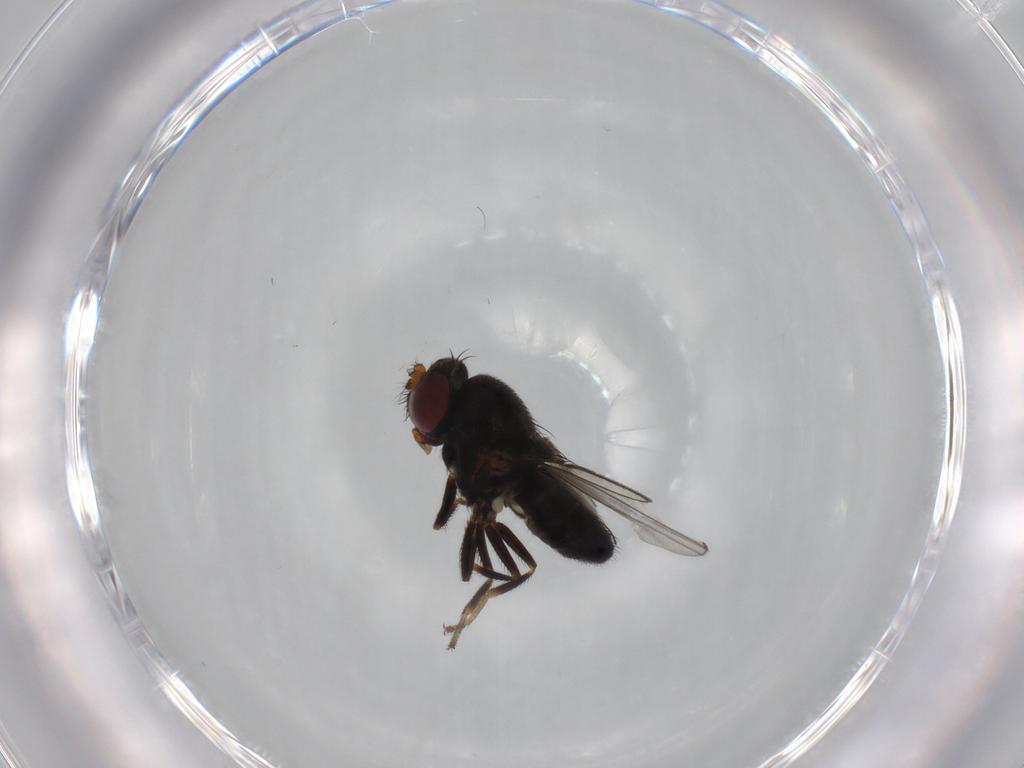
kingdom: Animalia
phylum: Arthropoda
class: Insecta
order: Diptera
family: Ephydridae
